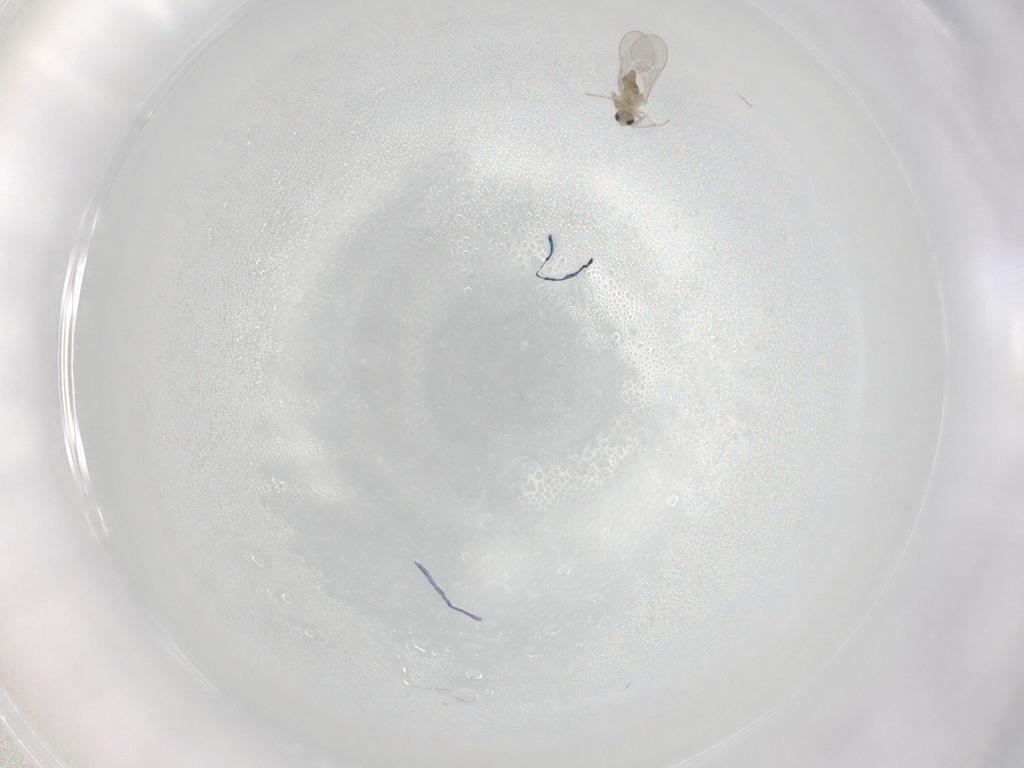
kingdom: Animalia
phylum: Arthropoda
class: Insecta
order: Diptera
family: Cecidomyiidae
